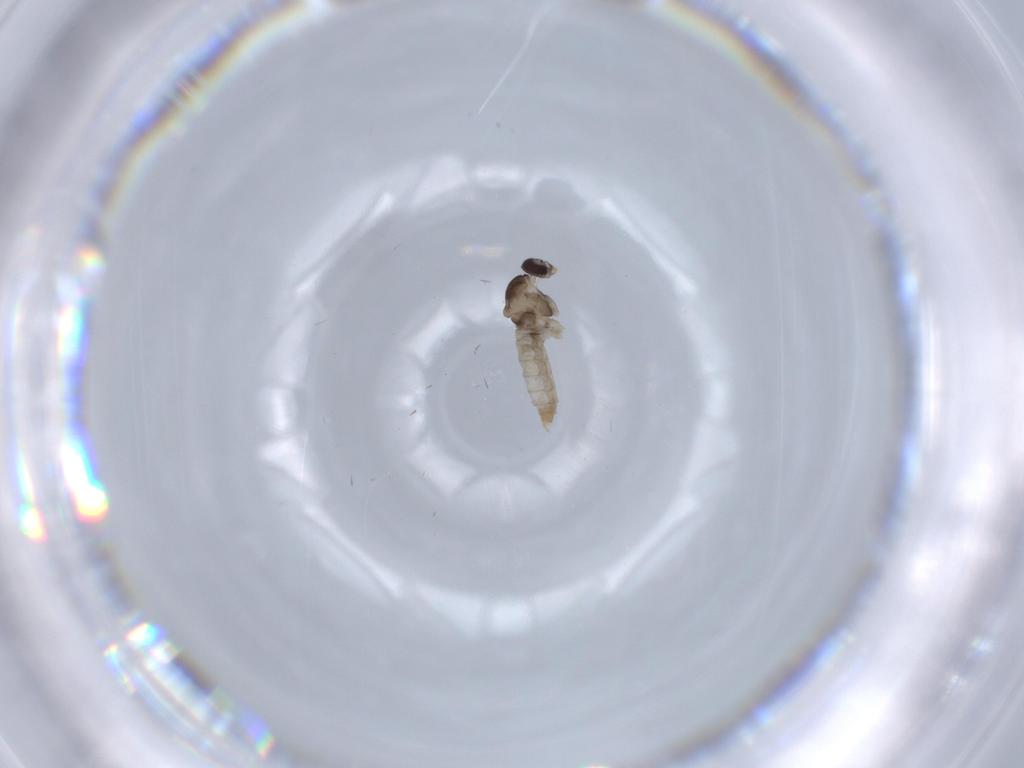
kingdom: Animalia
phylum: Arthropoda
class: Insecta
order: Diptera
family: Cecidomyiidae
